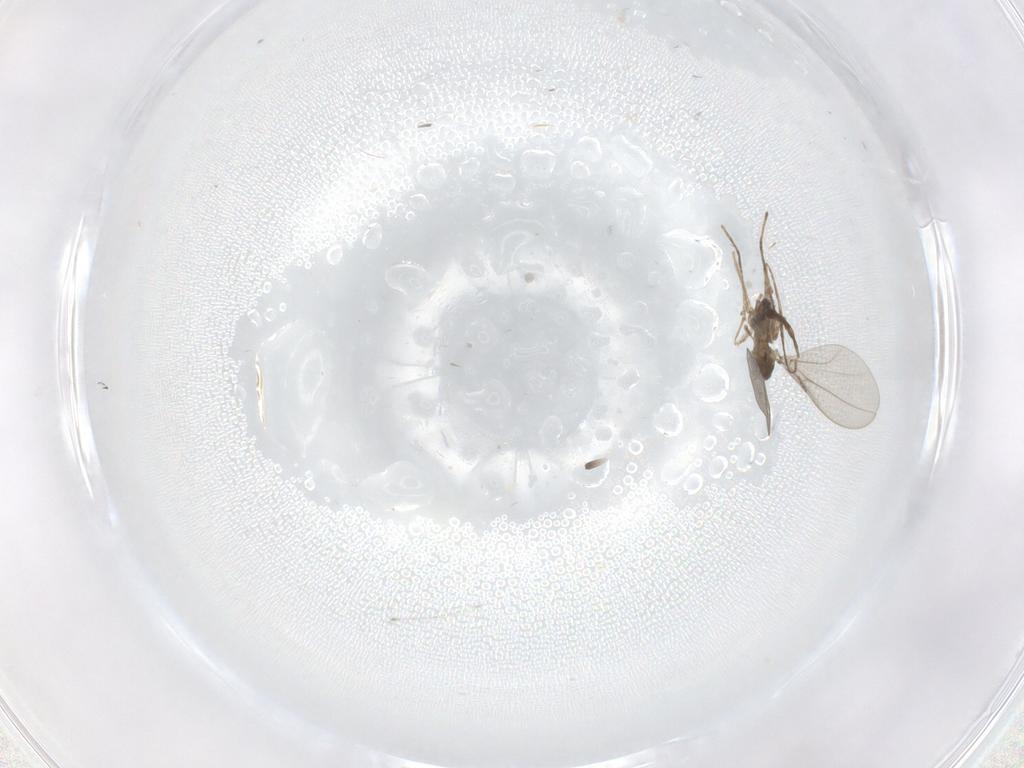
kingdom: Animalia
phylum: Arthropoda
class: Insecta
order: Diptera
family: Cecidomyiidae
